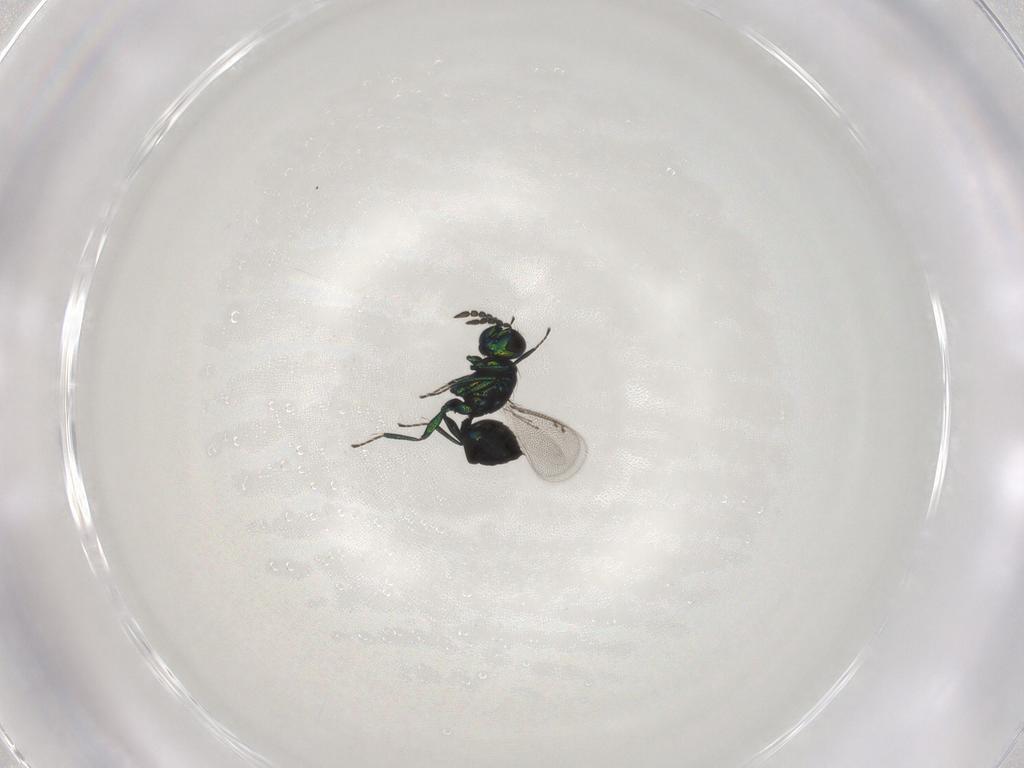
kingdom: Animalia
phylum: Arthropoda
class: Insecta
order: Hymenoptera
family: Eulophidae
